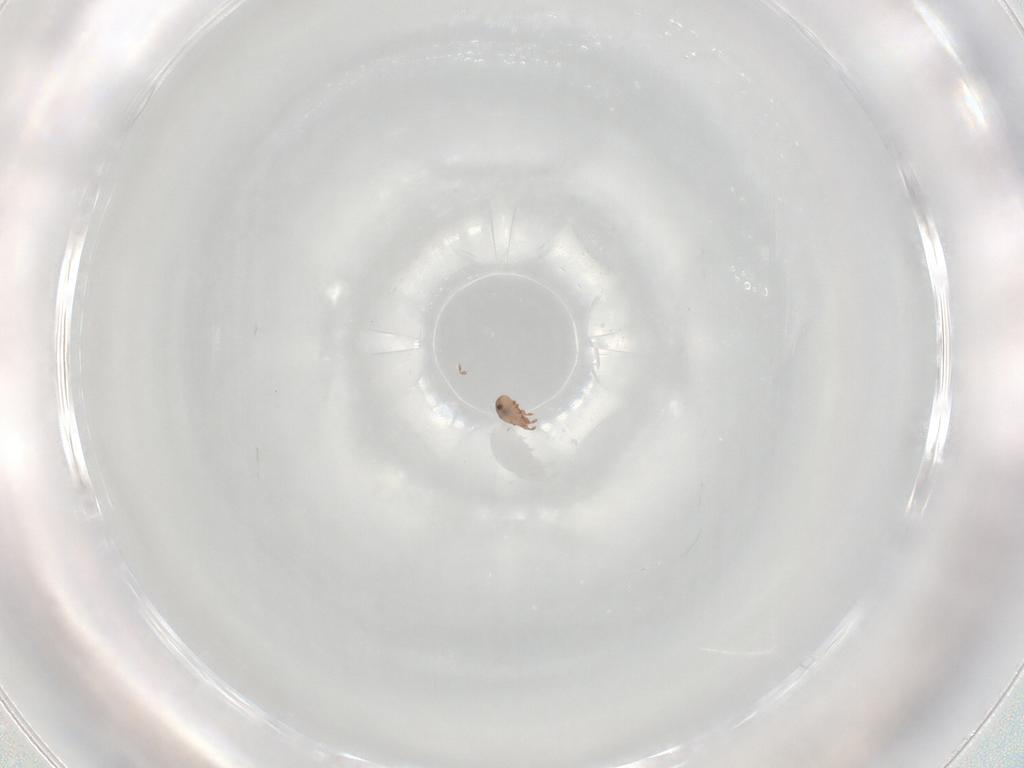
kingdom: Animalia
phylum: Arthropoda
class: Arachnida
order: Sarcoptiformes
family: Eremaeidae
